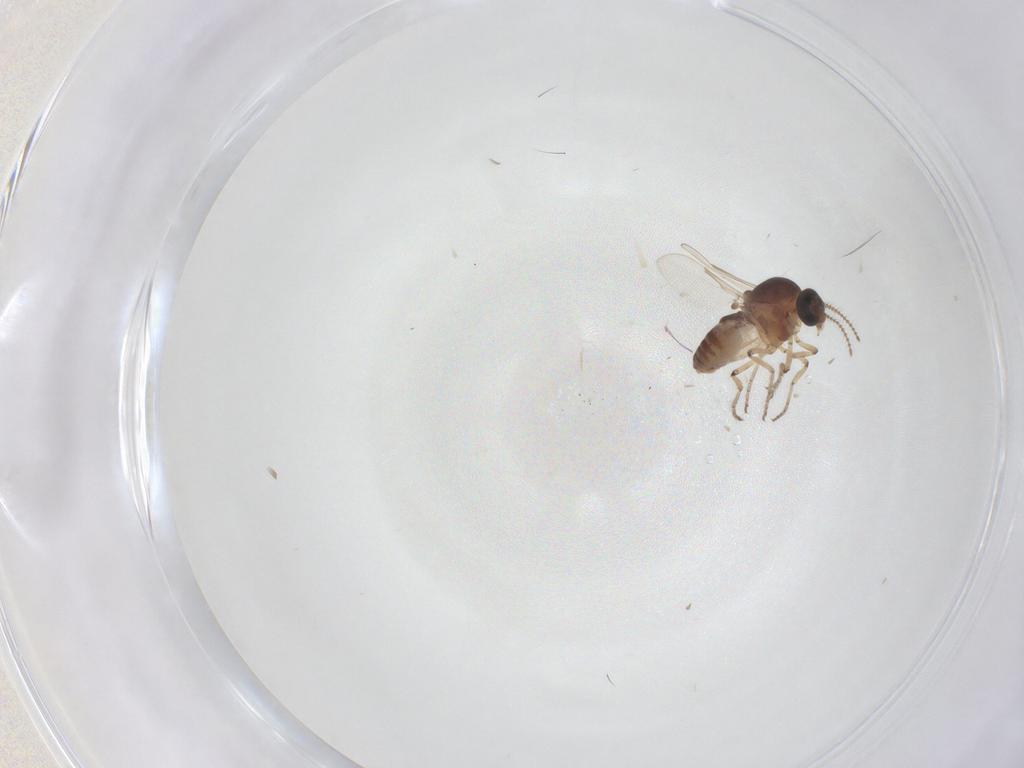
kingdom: Animalia
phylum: Arthropoda
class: Insecta
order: Diptera
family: Ceratopogonidae
